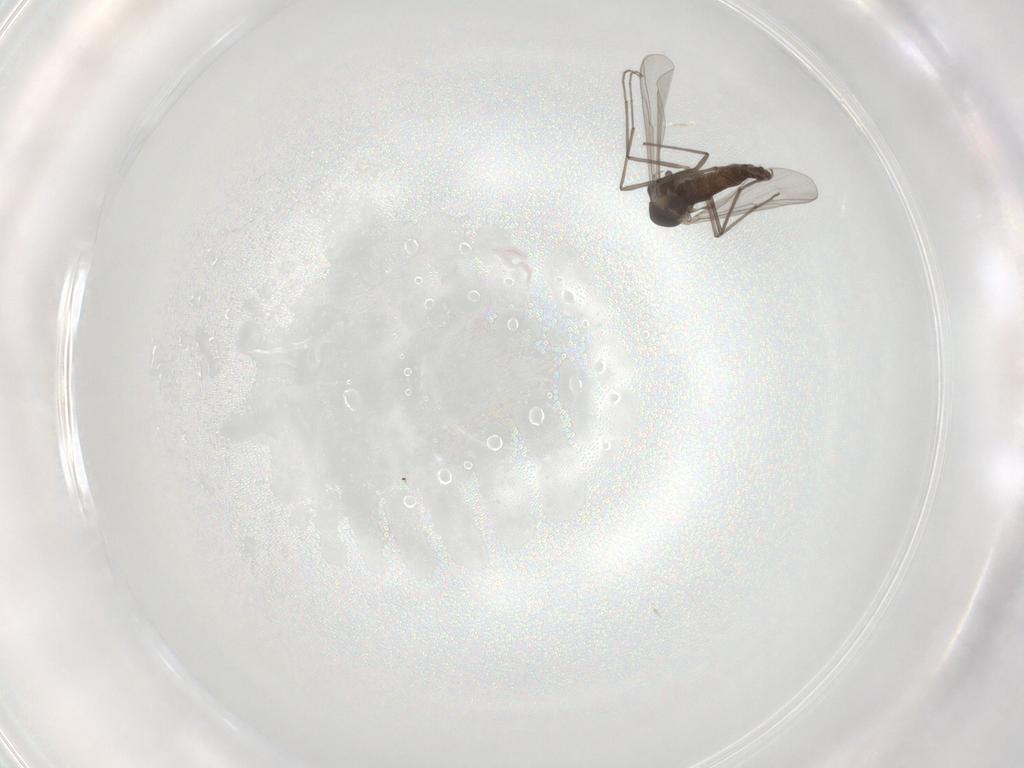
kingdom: Animalia
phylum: Arthropoda
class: Insecta
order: Diptera
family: Chironomidae
